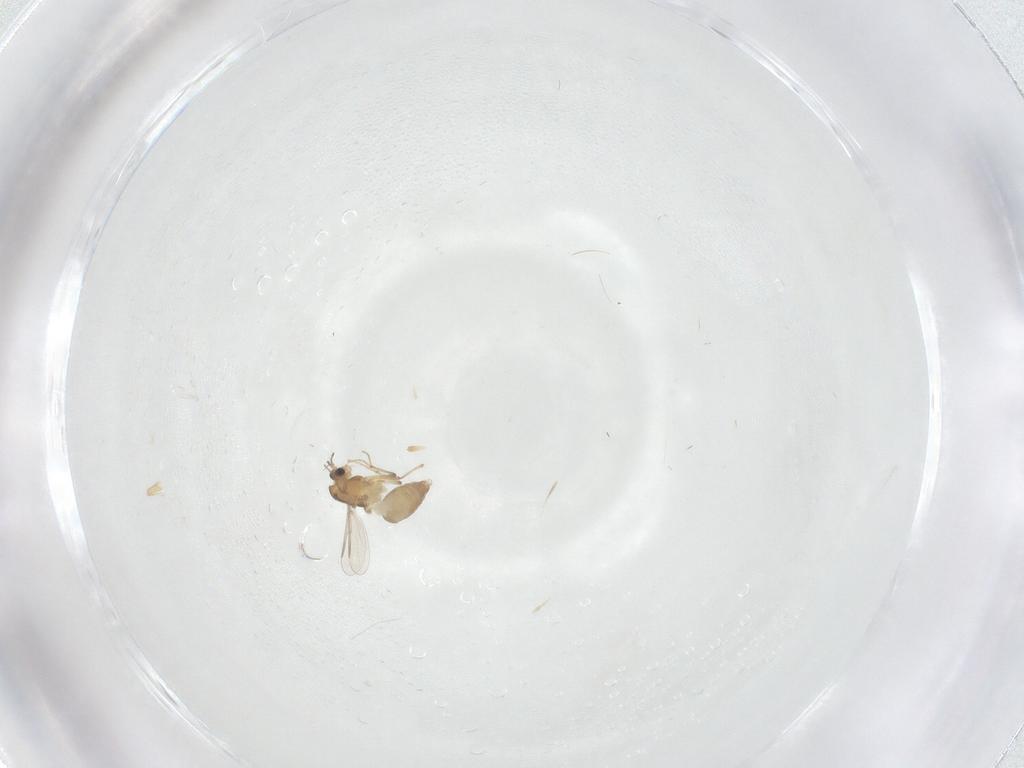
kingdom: Animalia
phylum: Arthropoda
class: Insecta
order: Diptera
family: Chironomidae
